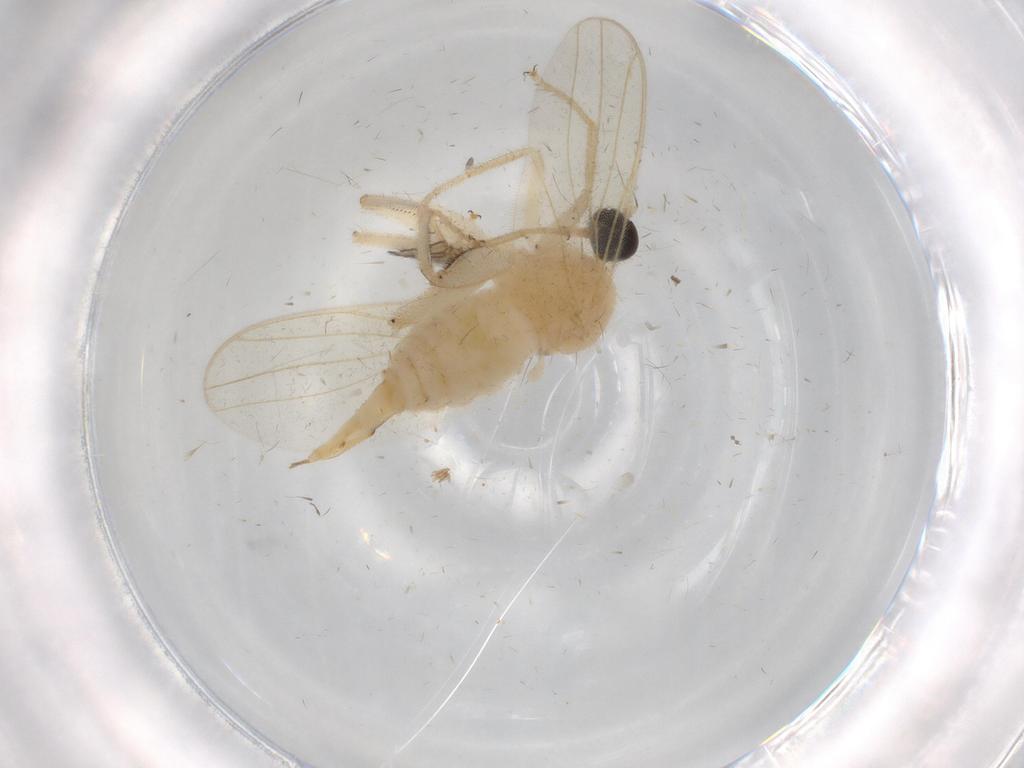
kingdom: Animalia
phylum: Arthropoda
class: Insecta
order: Diptera
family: Hybotidae
